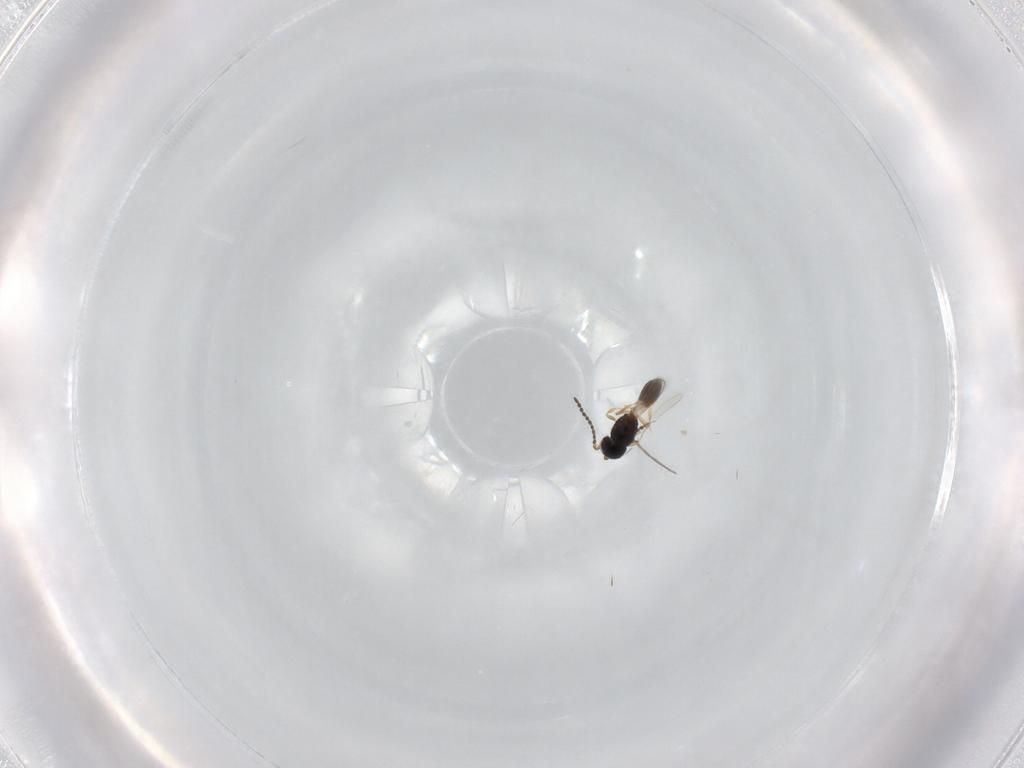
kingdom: Animalia
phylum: Arthropoda
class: Insecta
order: Hymenoptera
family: Scelionidae
